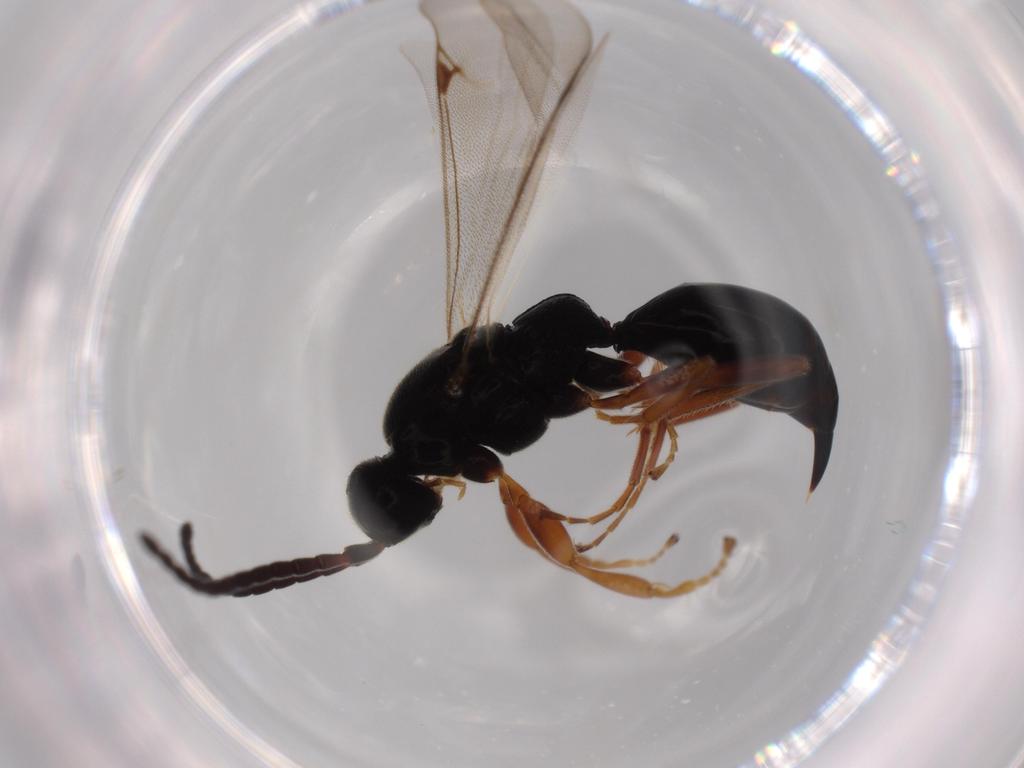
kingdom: Animalia
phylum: Arthropoda
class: Insecta
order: Hymenoptera
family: Proctotrupidae
